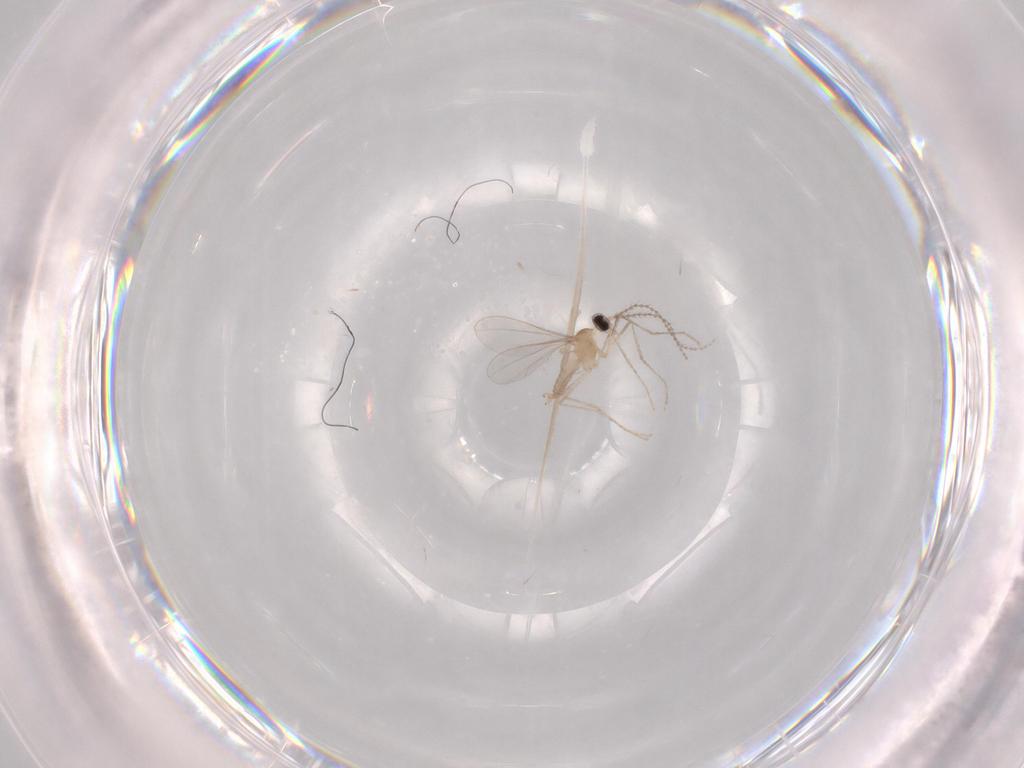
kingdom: Animalia
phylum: Arthropoda
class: Insecta
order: Diptera
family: Cecidomyiidae
